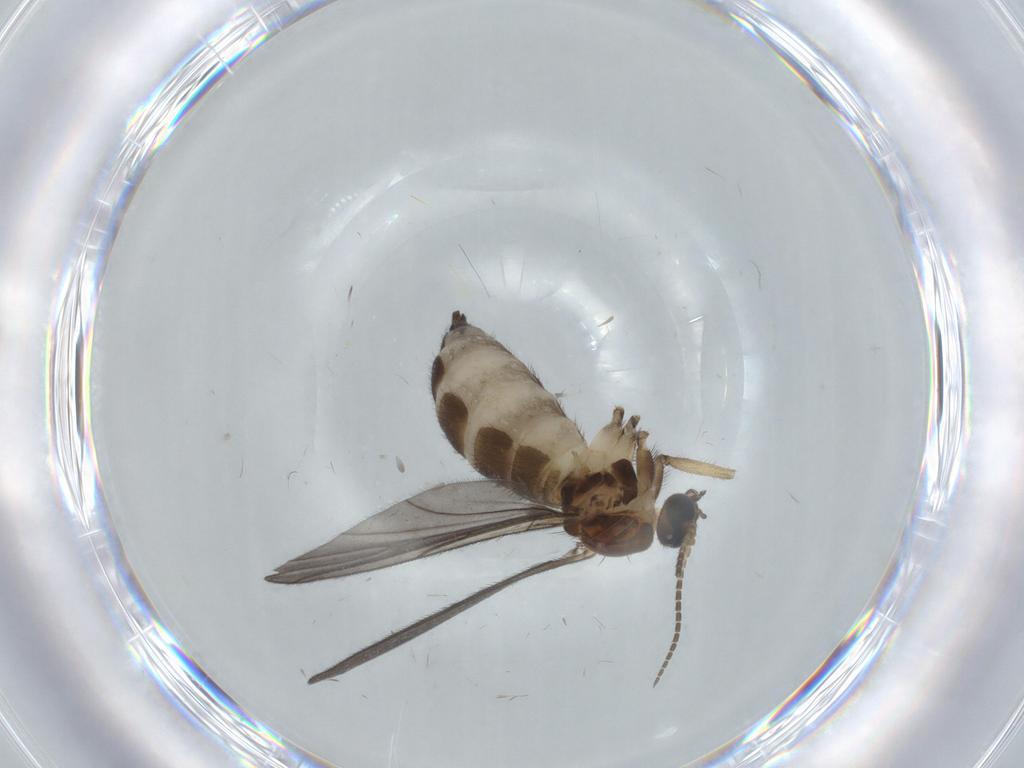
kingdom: Animalia
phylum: Arthropoda
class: Insecta
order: Diptera
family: Sciaridae
